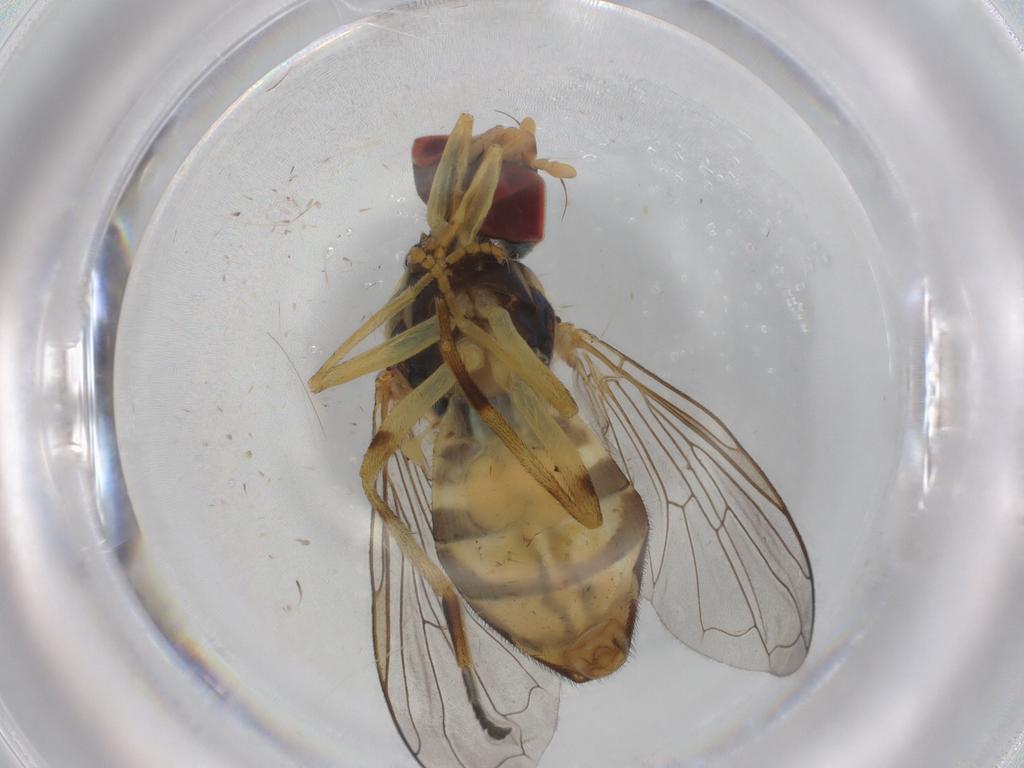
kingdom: Animalia
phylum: Arthropoda
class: Insecta
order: Diptera
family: Syrphidae
